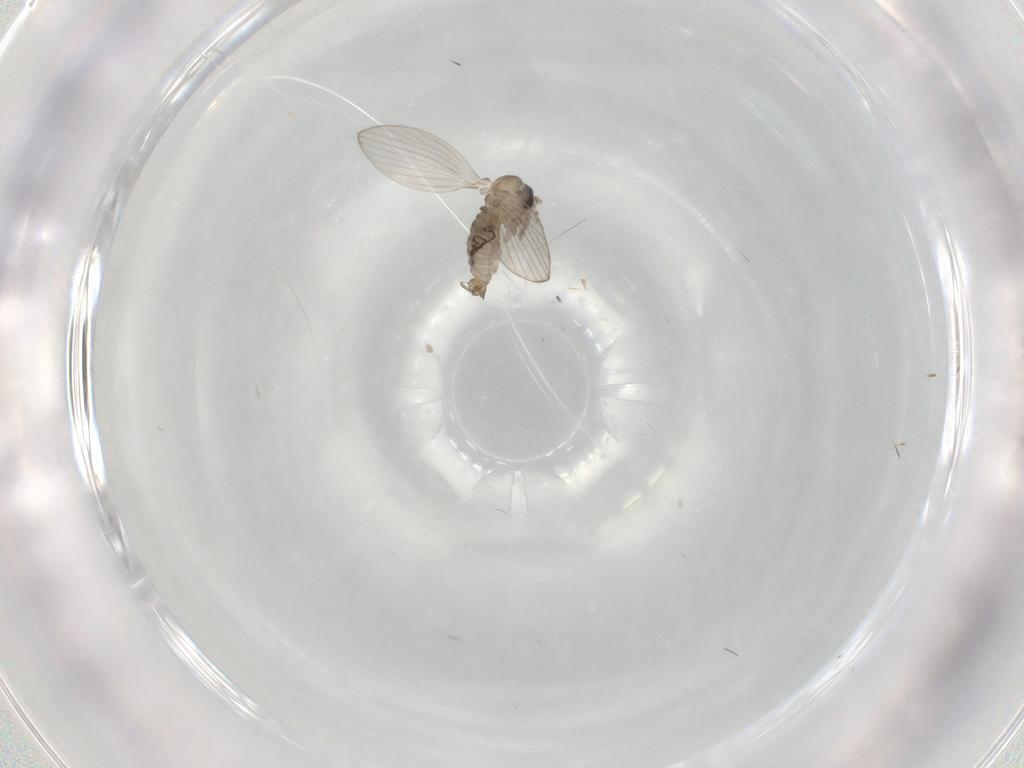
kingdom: Animalia
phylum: Arthropoda
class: Insecta
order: Diptera
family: Psychodidae
